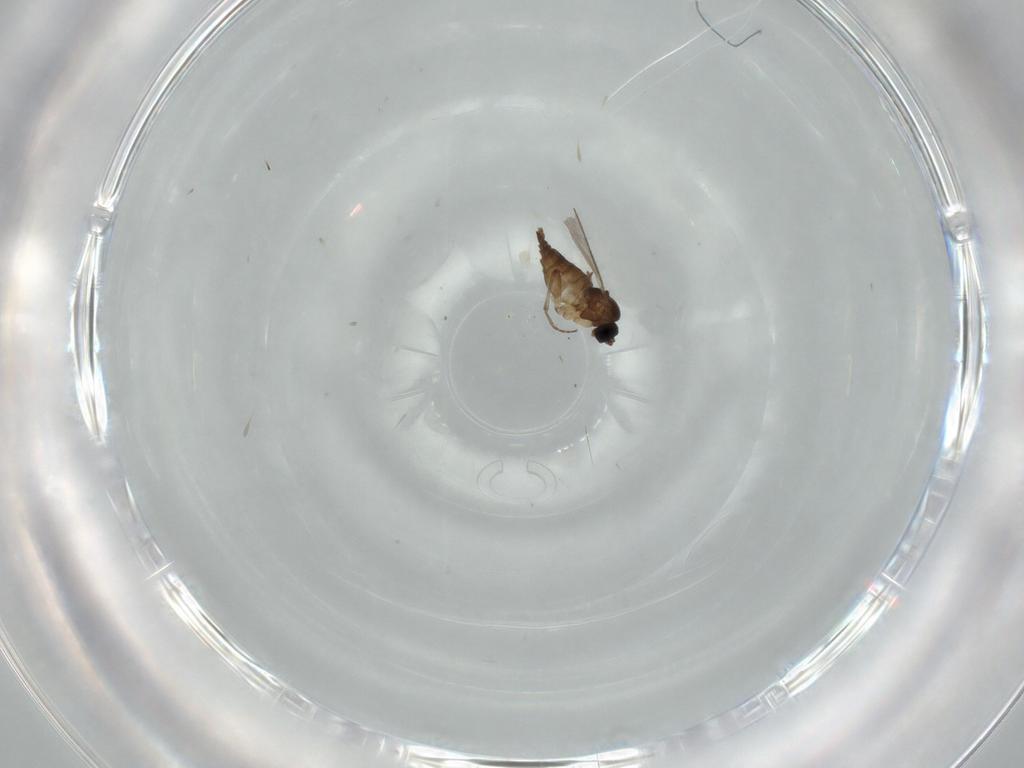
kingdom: Animalia
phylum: Arthropoda
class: Insecta
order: Diptera
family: Sciaridae
